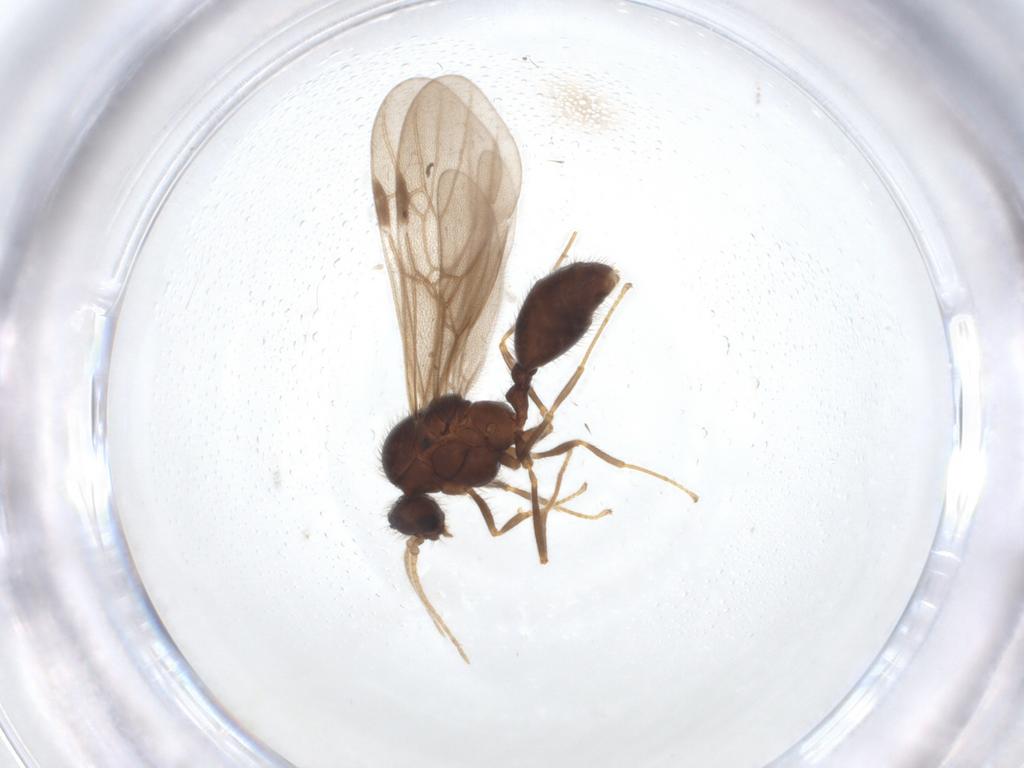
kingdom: Animalia
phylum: Arthropoda
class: Insecta
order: Hymenoptera
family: Formicidae
